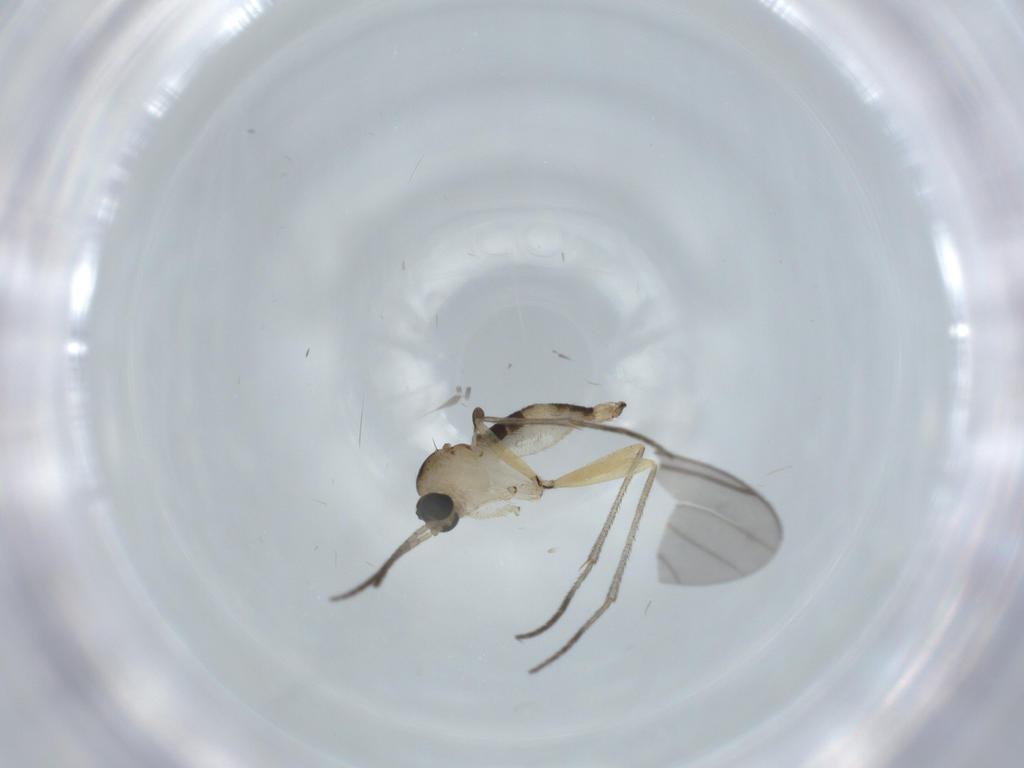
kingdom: Animalia
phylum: Arthropoda
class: Insecta
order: Diptera
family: Sciaridae
